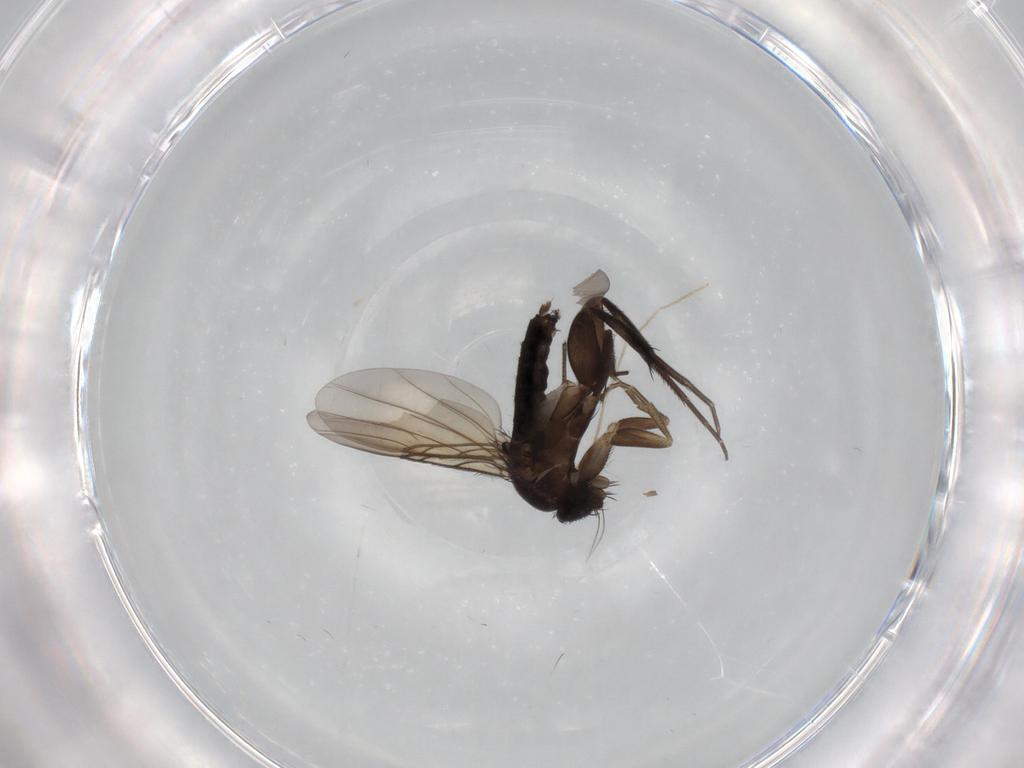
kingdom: Animalia
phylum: Arthropoda
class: Insecta
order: Diptera
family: Phoridae
